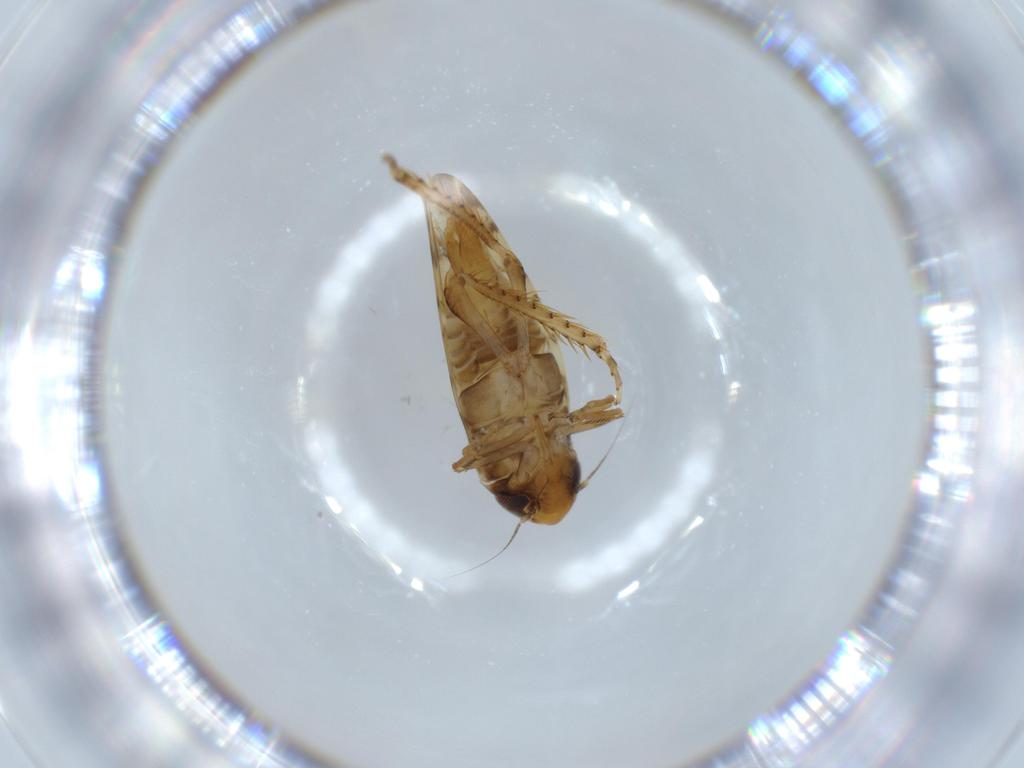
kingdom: Animalia
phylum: Arthropoda
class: Insecta
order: Hemiptera
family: Cicadellidae
